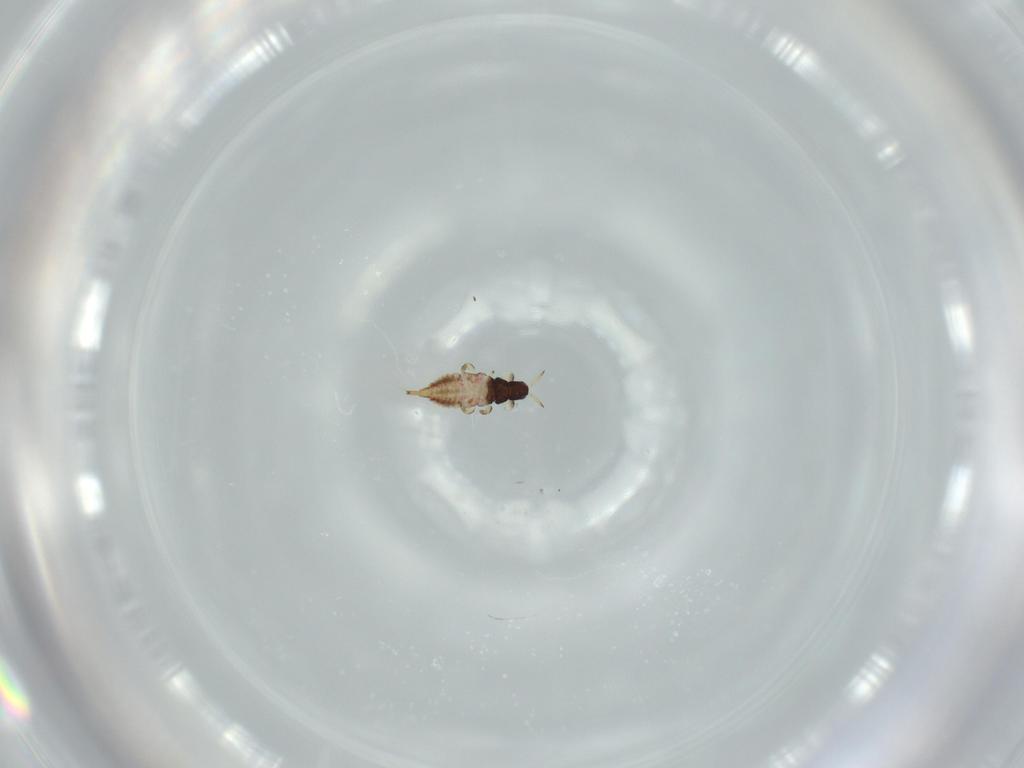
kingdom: Animalia
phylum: Arthropoda
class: Insecta
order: Thysanoptera
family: Phlaeothripidae
